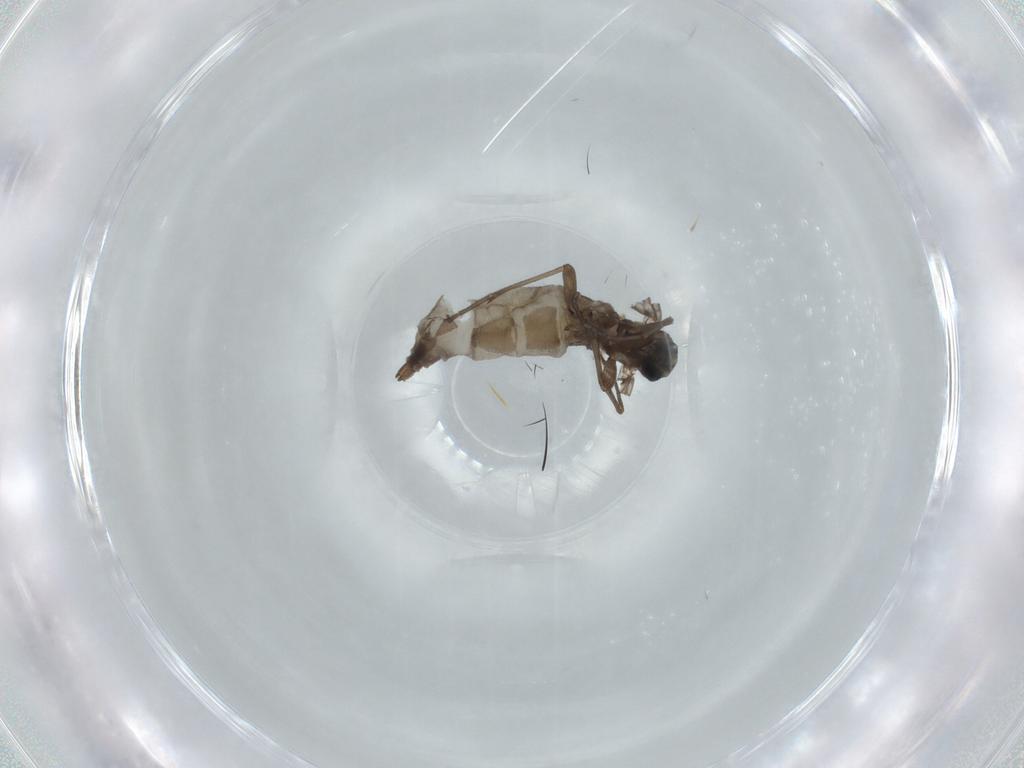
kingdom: Animalia
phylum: Arthropoda
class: Insecta
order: Diptera
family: Sciaridae
